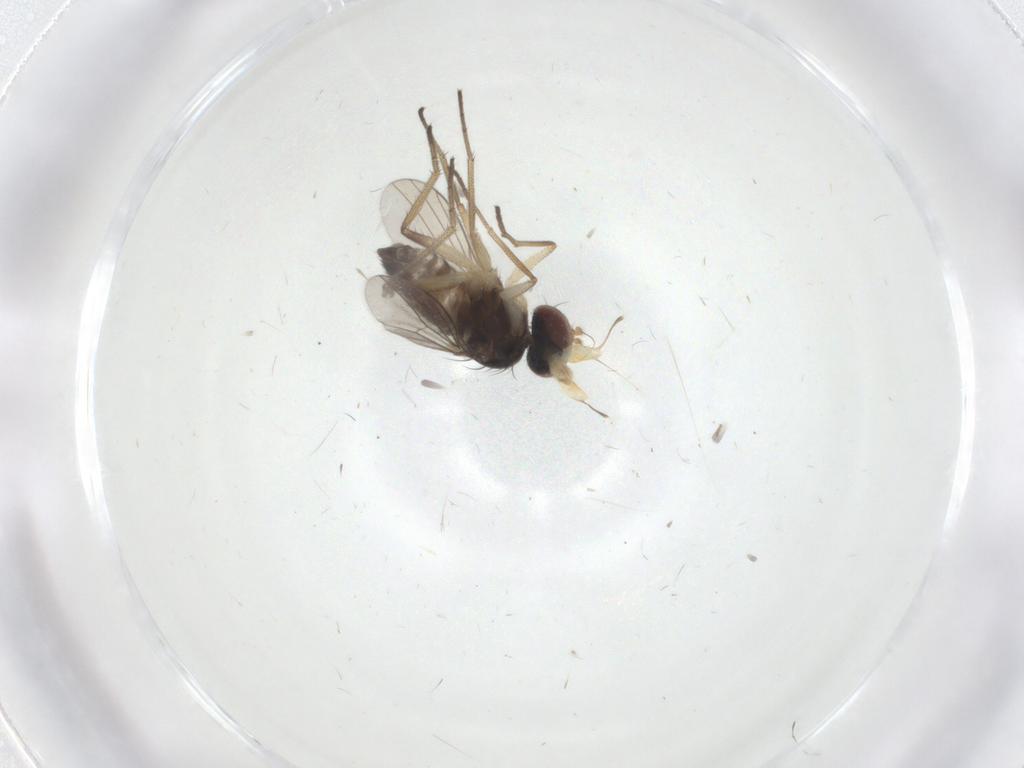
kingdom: Animalia
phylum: Arthropoda
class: Insecta
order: Diptera
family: Dolichopodidae
